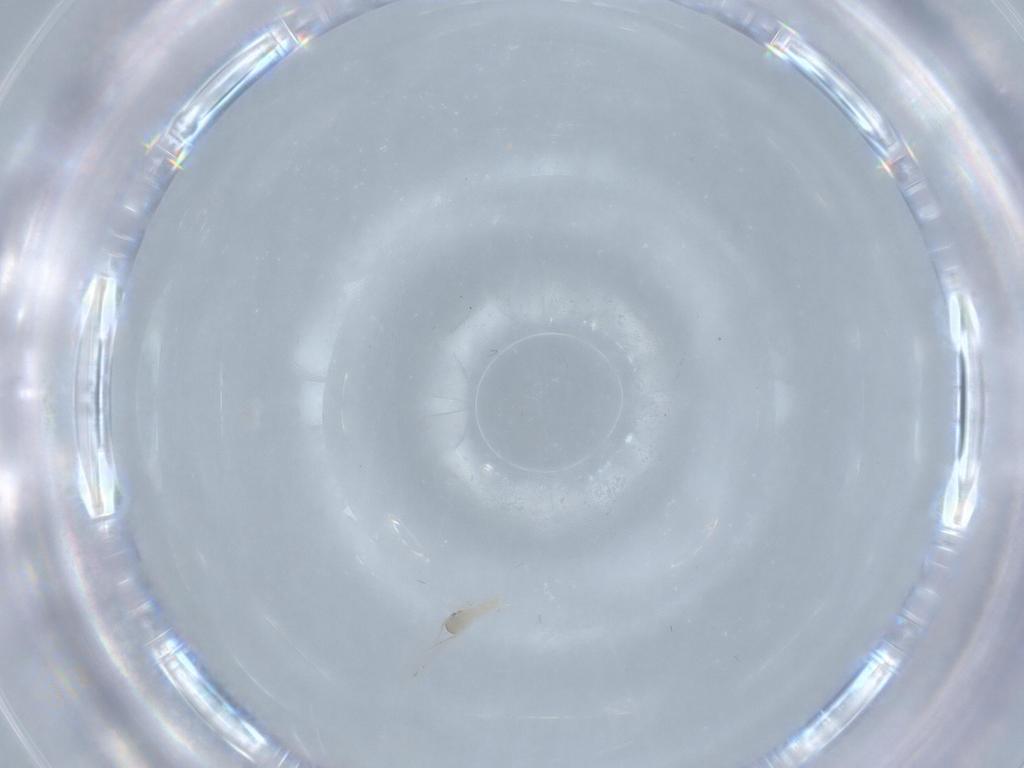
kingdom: Animalia
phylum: Arthropoda
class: Insecta
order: Diptera
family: Chironomidae
